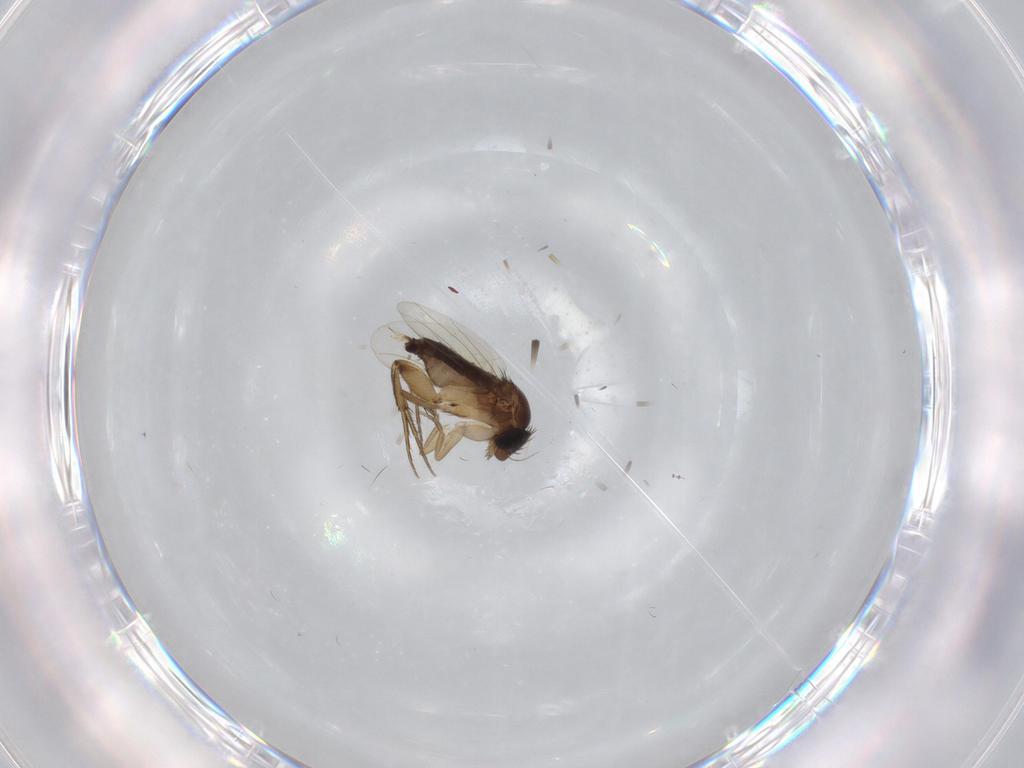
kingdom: Animalia
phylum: Arthropoda
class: Insecta
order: Diptera
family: Phoridae
